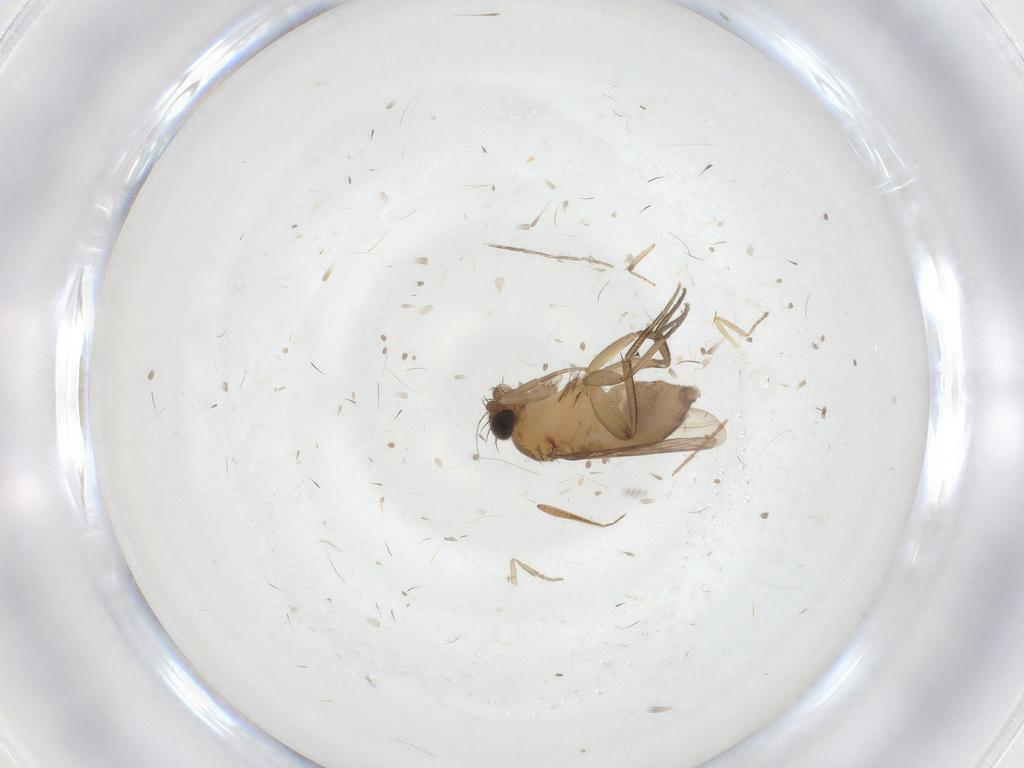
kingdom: Animalia
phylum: Arthropoda
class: Insecta
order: Diptera
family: Phoridae
